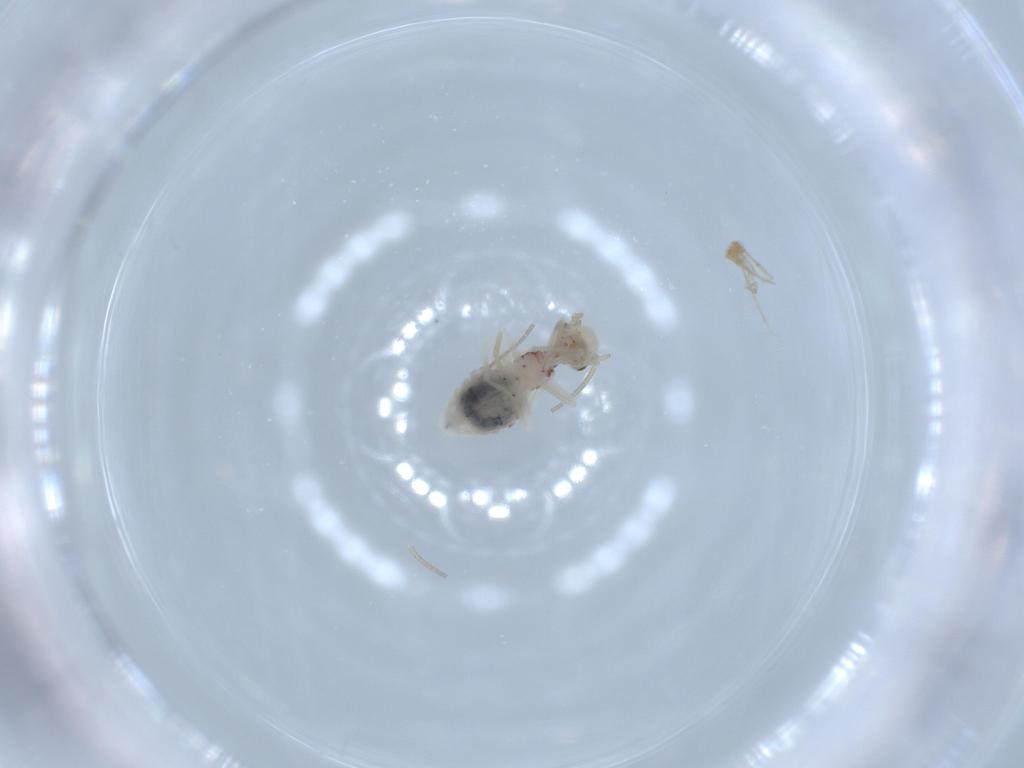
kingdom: Animalia
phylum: Arthropoda
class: Insecta
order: Psocodea
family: Caeciliusidae
